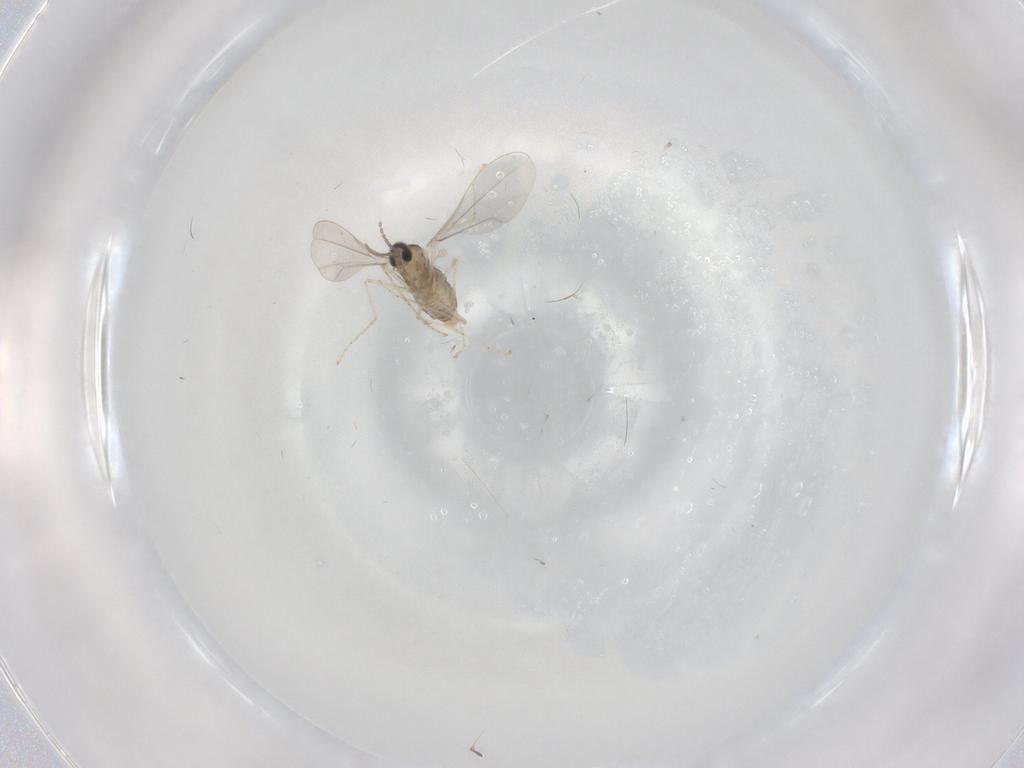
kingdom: Animalia
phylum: Arthropoda
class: Insecta
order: Diptera
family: Cecidomyiidae
